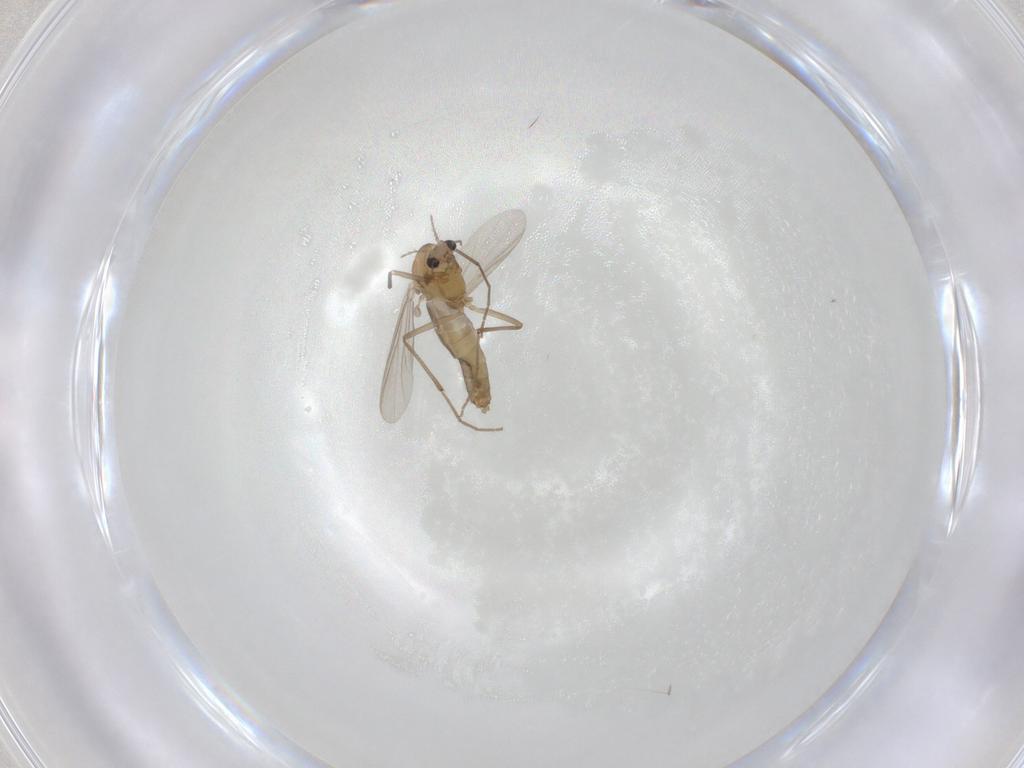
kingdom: Animalia
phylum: Arthropoda
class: Insecta
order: Diptera
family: Chironomidae
